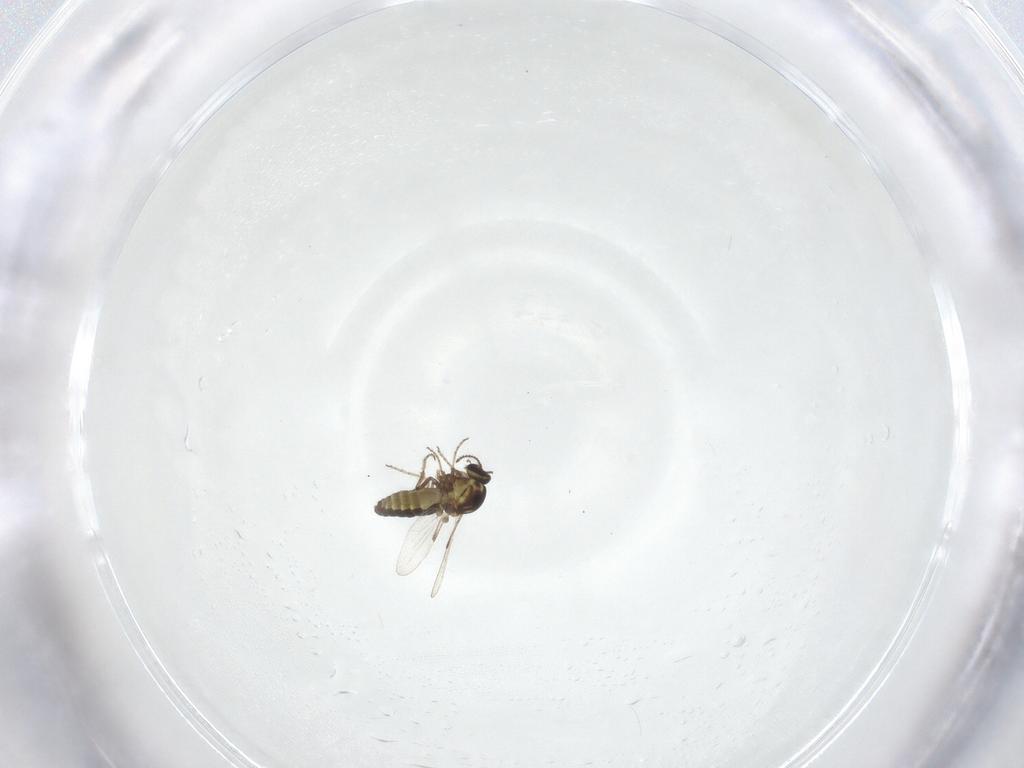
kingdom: Animalia
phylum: Arthropoda
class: Insecta
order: Diptera
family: Ceratopogonidae
